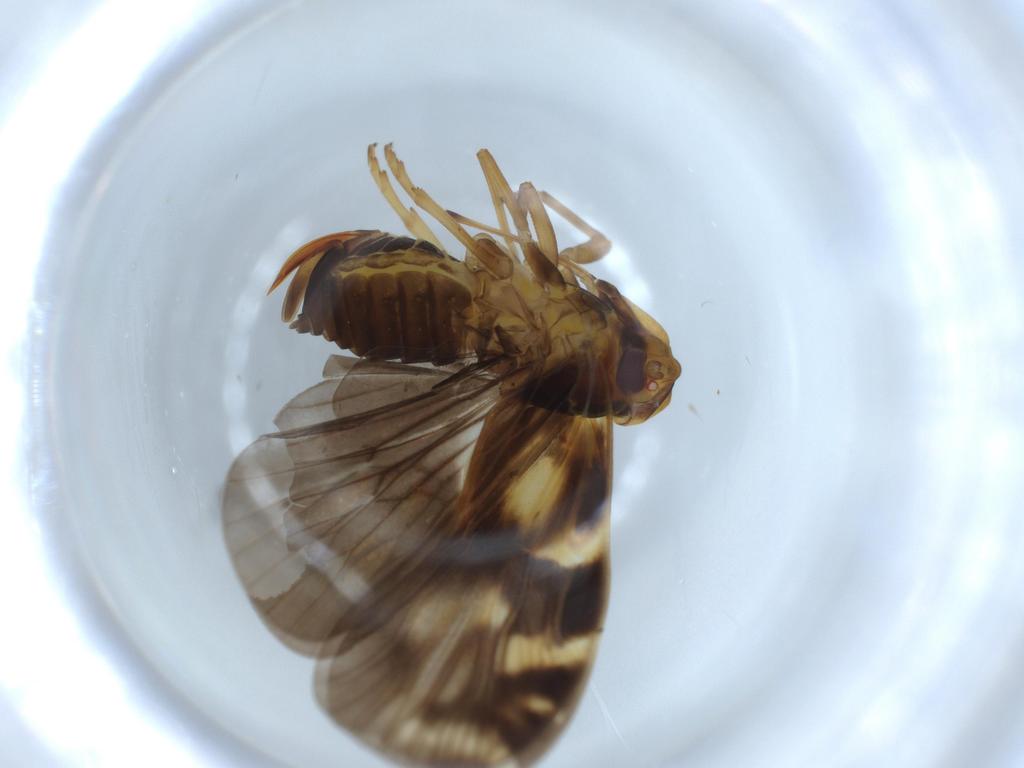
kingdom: Animalia
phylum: Arthropoda
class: Insecta
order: Hemiptera
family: Cixiidae
